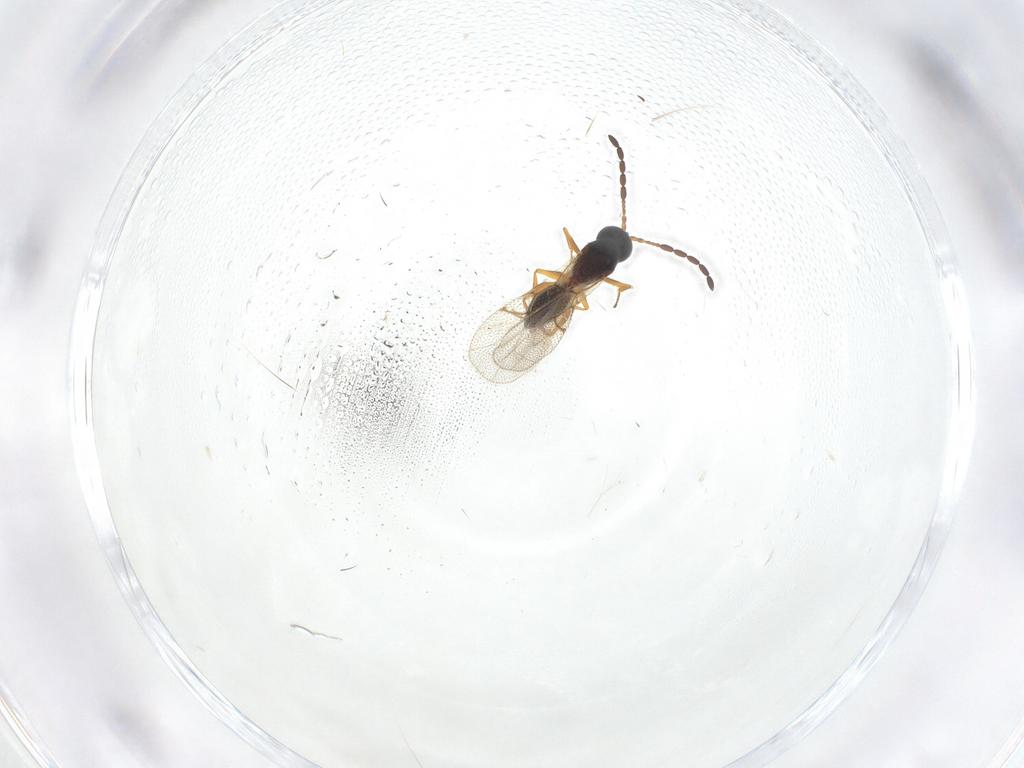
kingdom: Animalia
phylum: Arthropoda
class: Insecta
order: Hymenoptera
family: Figitidae
